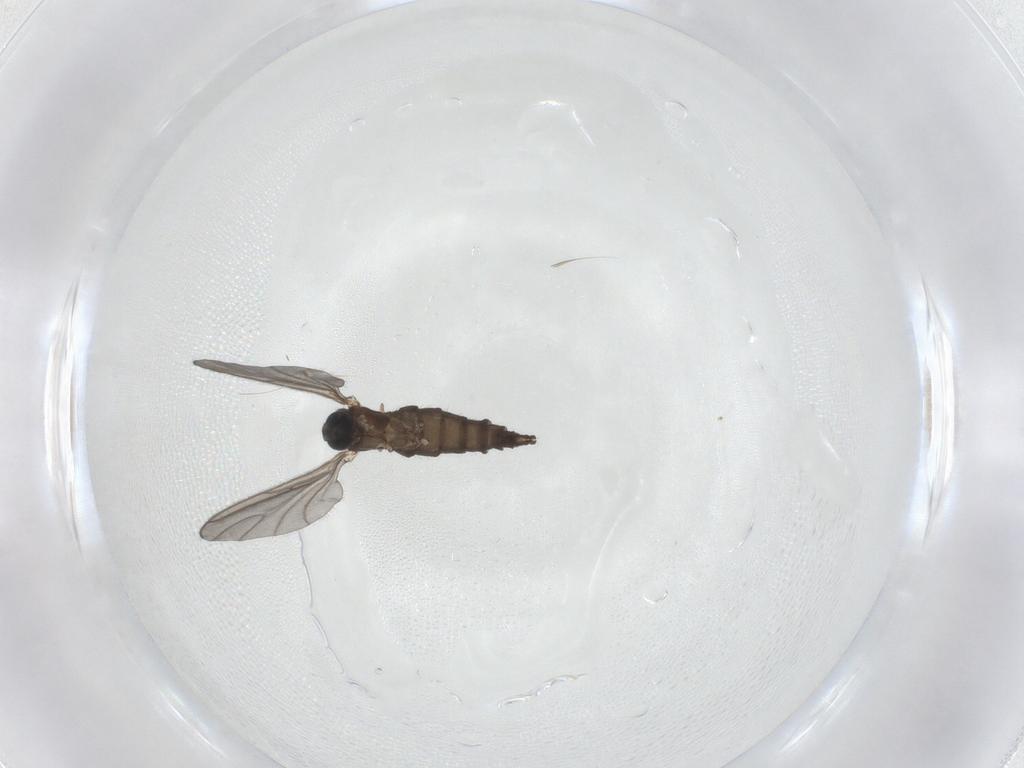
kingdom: Animalia
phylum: Arthropoda
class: Insecta
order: Diptera
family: Sciaridae
